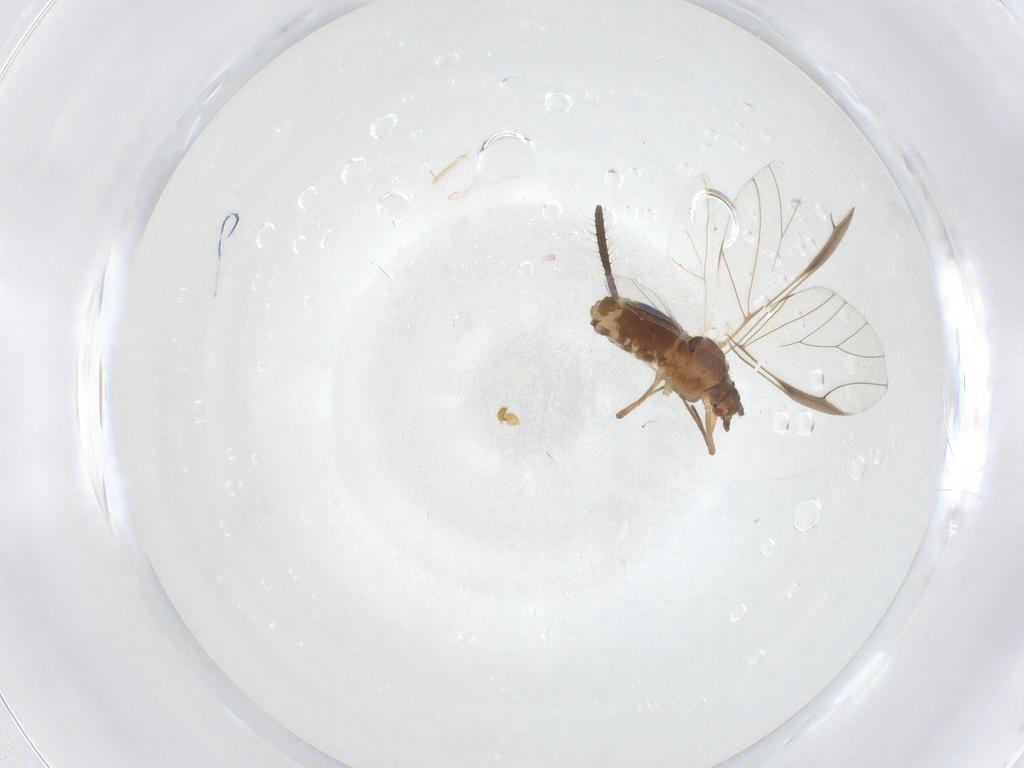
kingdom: Animalia
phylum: Arthropoda
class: Insecta
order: Hemiptera
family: Aphididae
